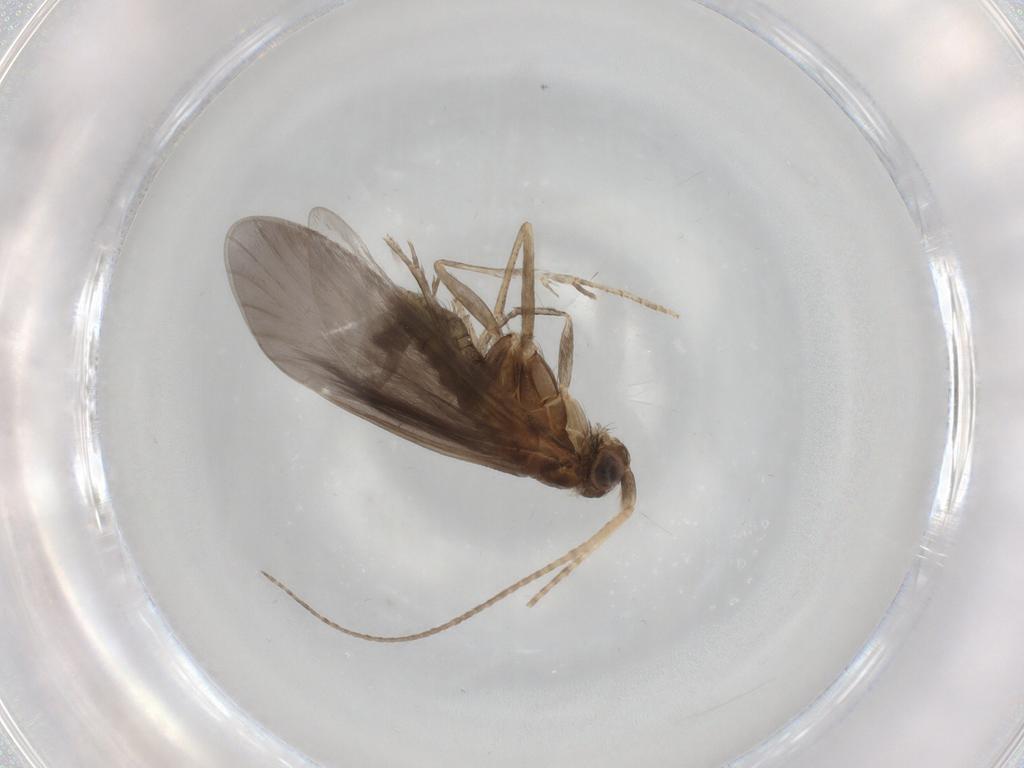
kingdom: Animalia
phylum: Arthropoda
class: Insecta
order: Trichoptera
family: Helicopsychidae
